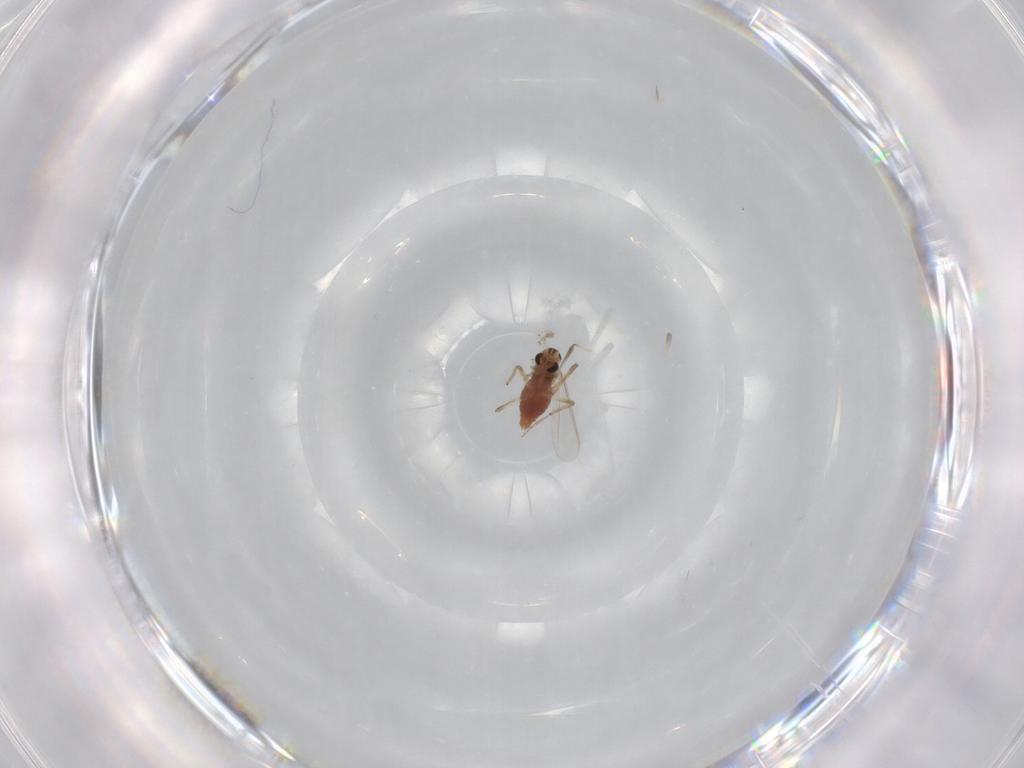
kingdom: Animalia
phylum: Arthropoda
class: Insecta
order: Diptera
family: Chironomidae
